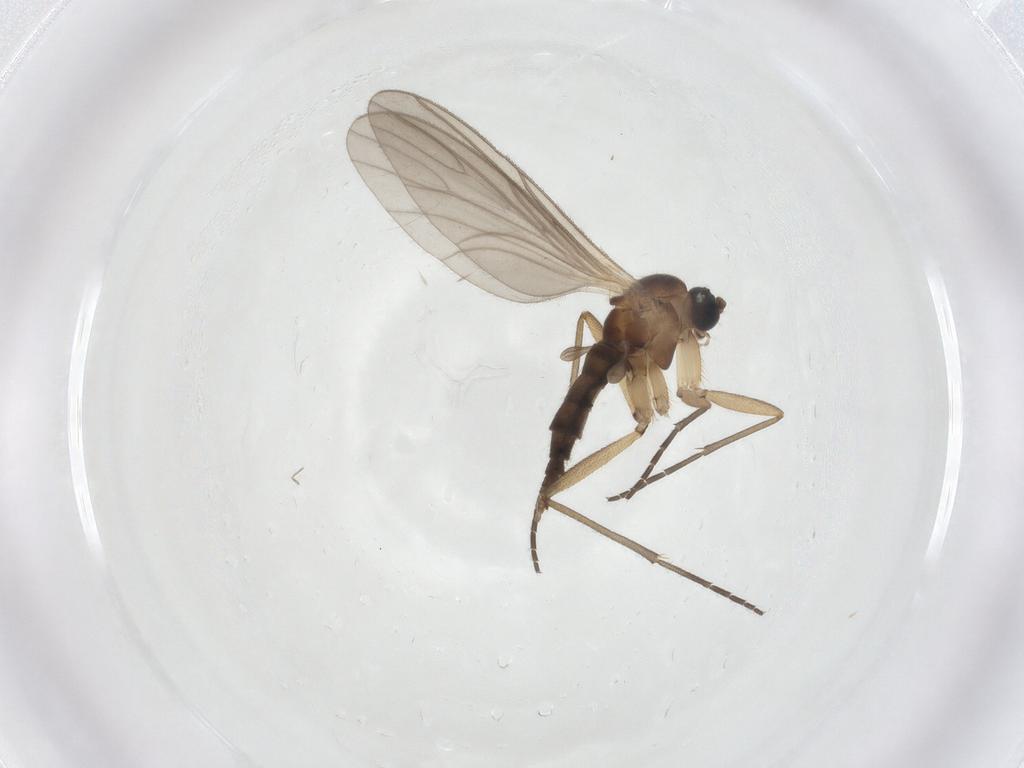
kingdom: Animalia
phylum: Arthropoda
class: Insecta
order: Diptera
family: Sciaridae
